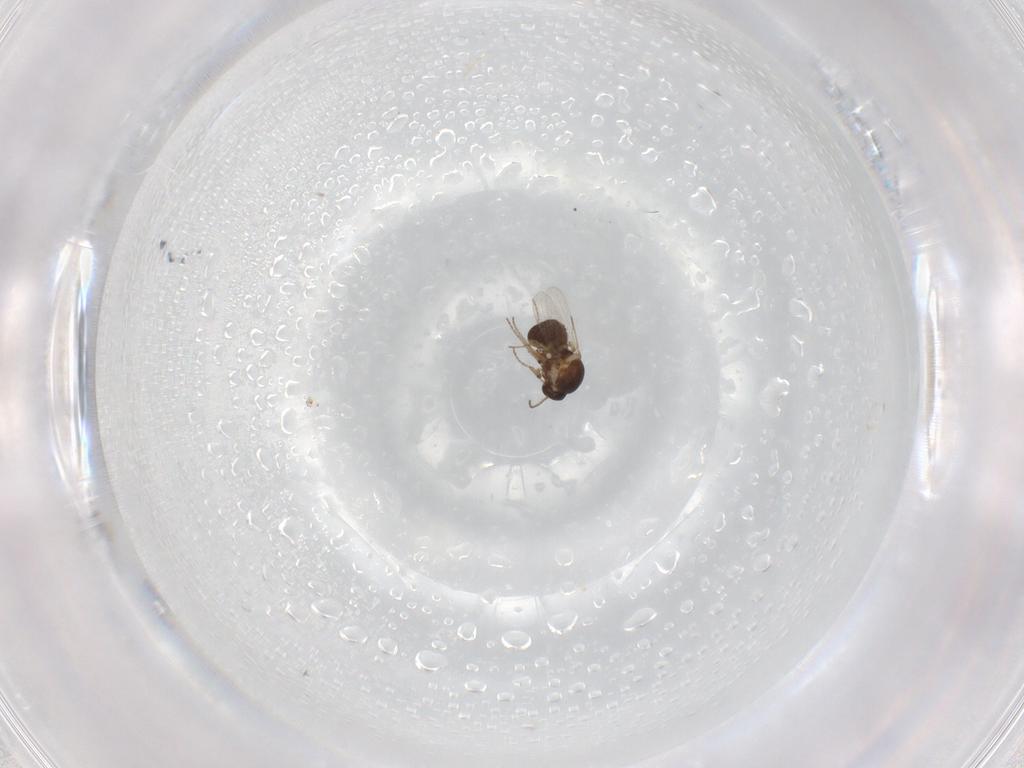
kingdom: Animalia
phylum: Arthropoda
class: Insecta
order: Diptera
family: Ceratopogonidae
